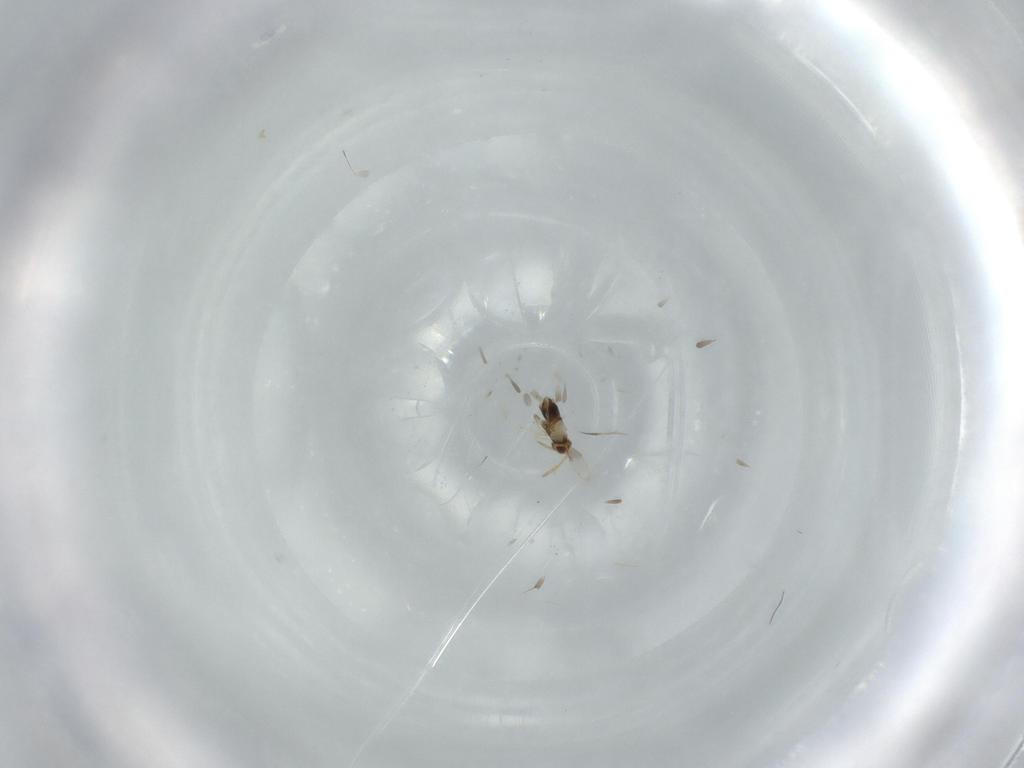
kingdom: Animalia
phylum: Arthropoda
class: Insecta
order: Hymenoptera
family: Aphelinidae
